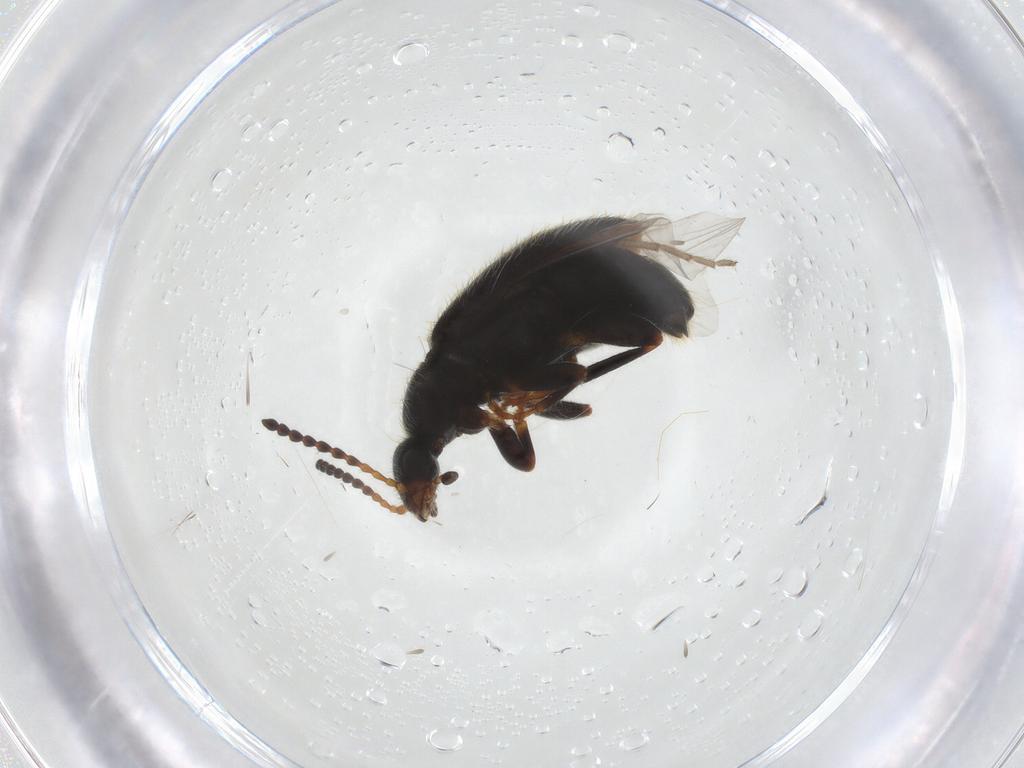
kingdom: Animalia
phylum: Arthropoda
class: Insecta
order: Coleoptera
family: Anthicidae
